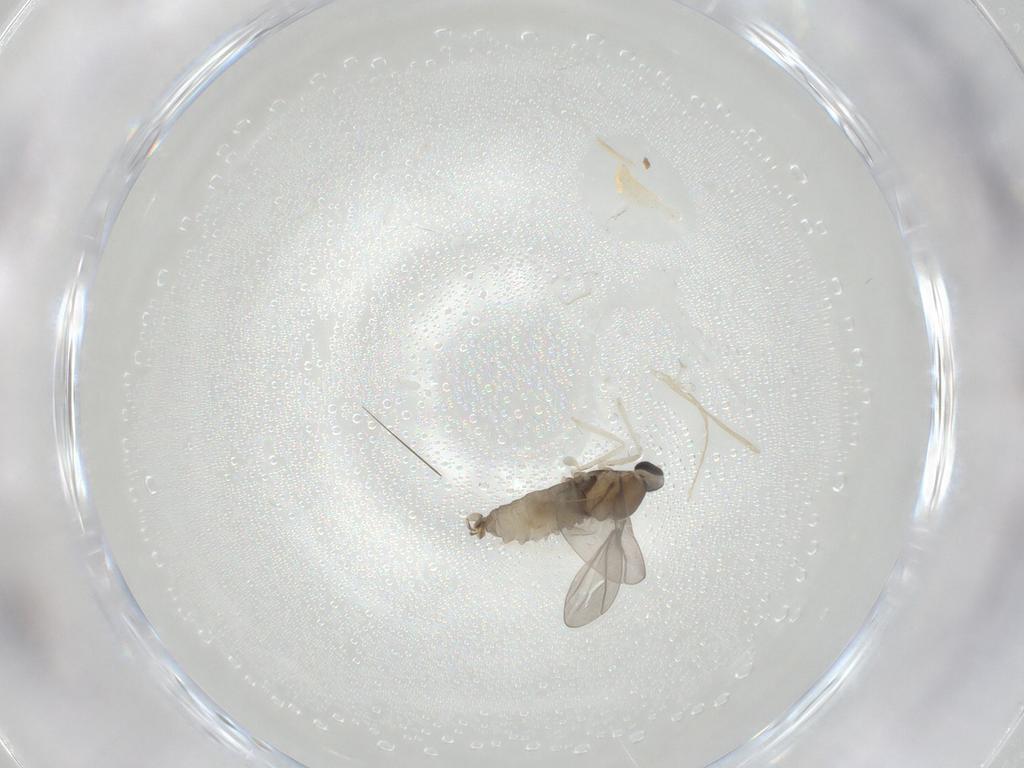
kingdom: Animalia
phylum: Arthropoda
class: Insecta
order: Diptera
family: Cecidomyiidae
